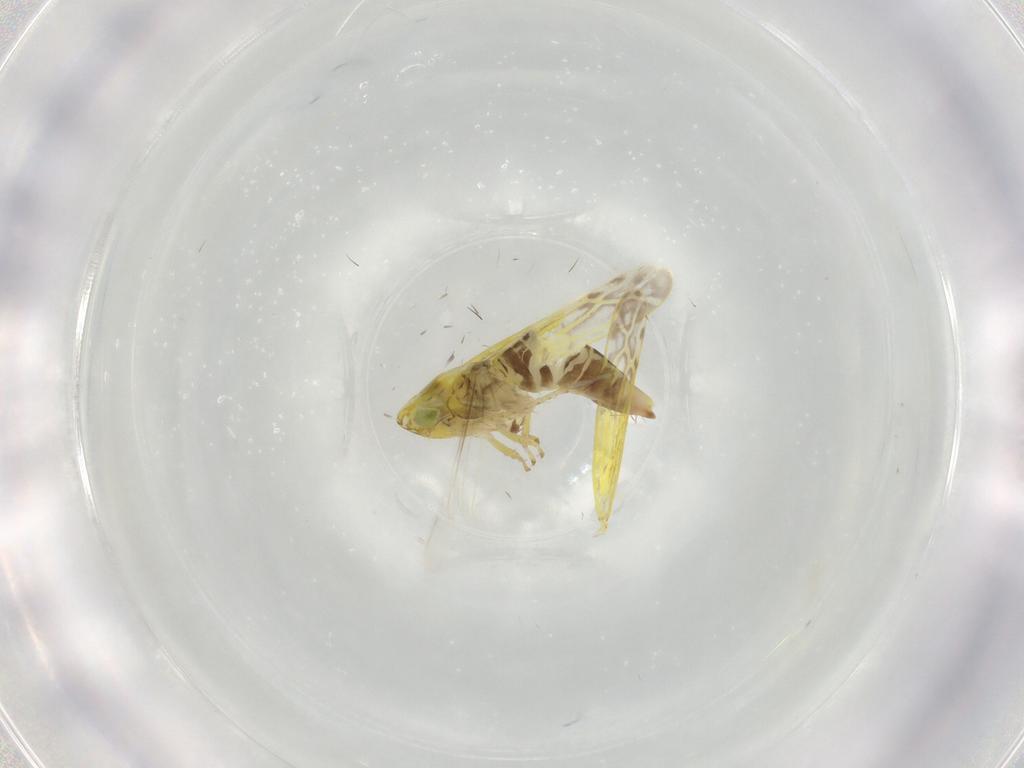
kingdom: Animalia
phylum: Arthropoda
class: Insecta
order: Hemiptera
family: Cicadellidae
